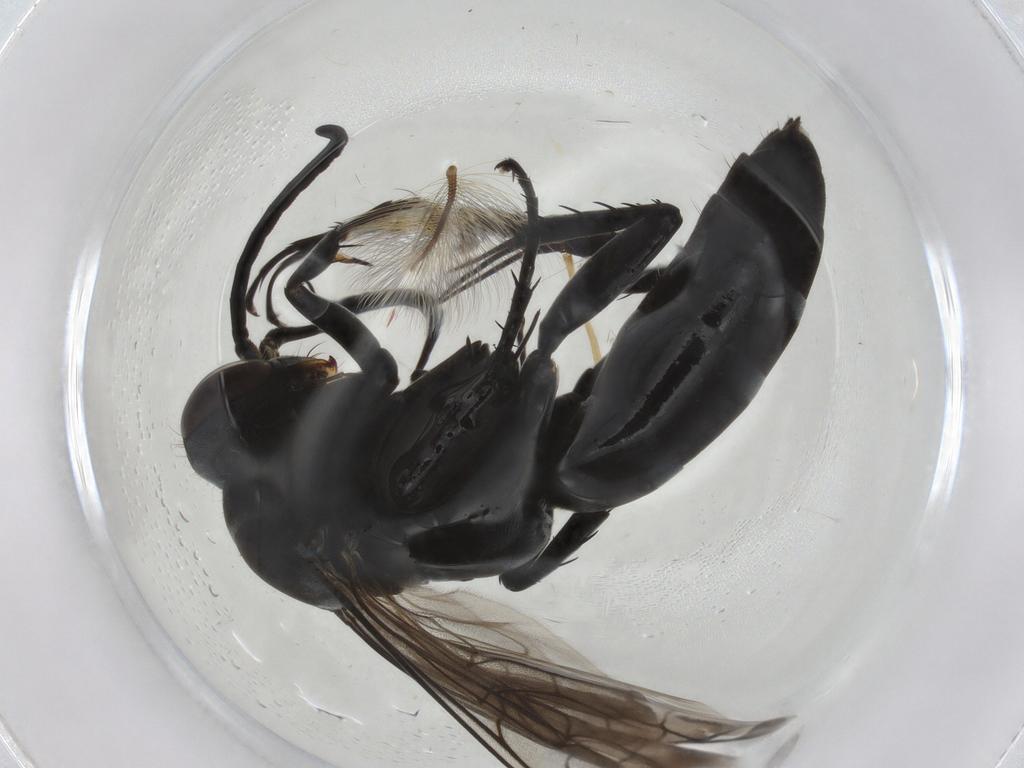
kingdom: Animalia
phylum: Arthropoda
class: Insecta
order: Hymenoptera
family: Pompilidae
